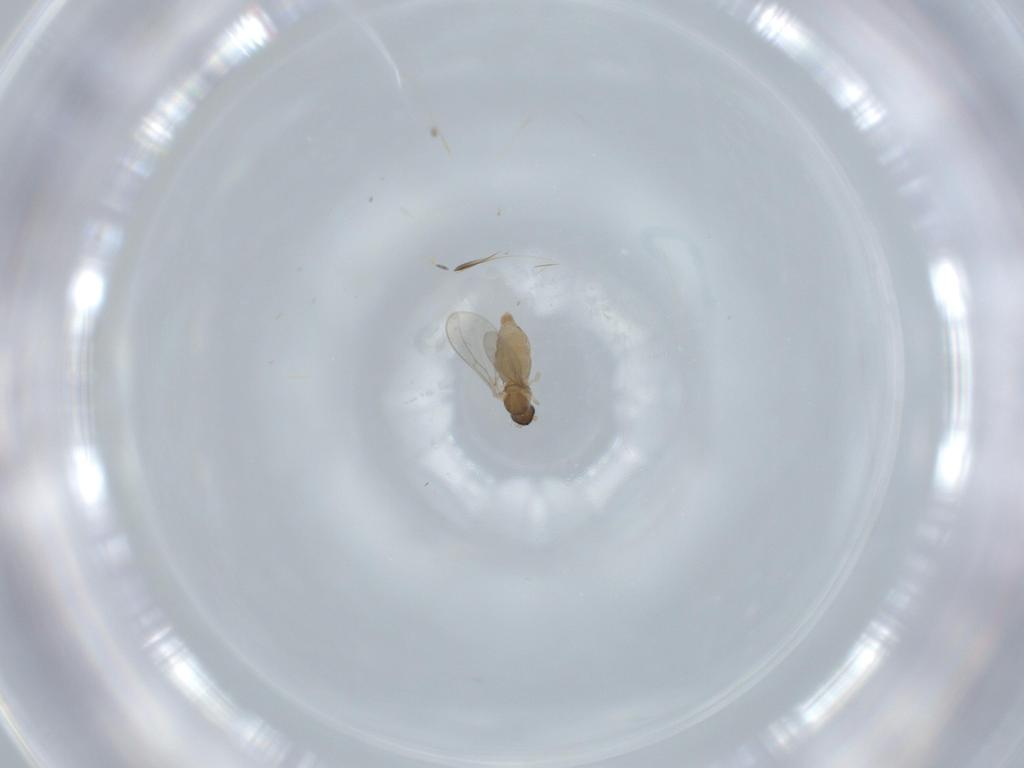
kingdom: Animalia
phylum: Arthropoda
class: Insecta
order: Diptera
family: Cecidomyiidae
